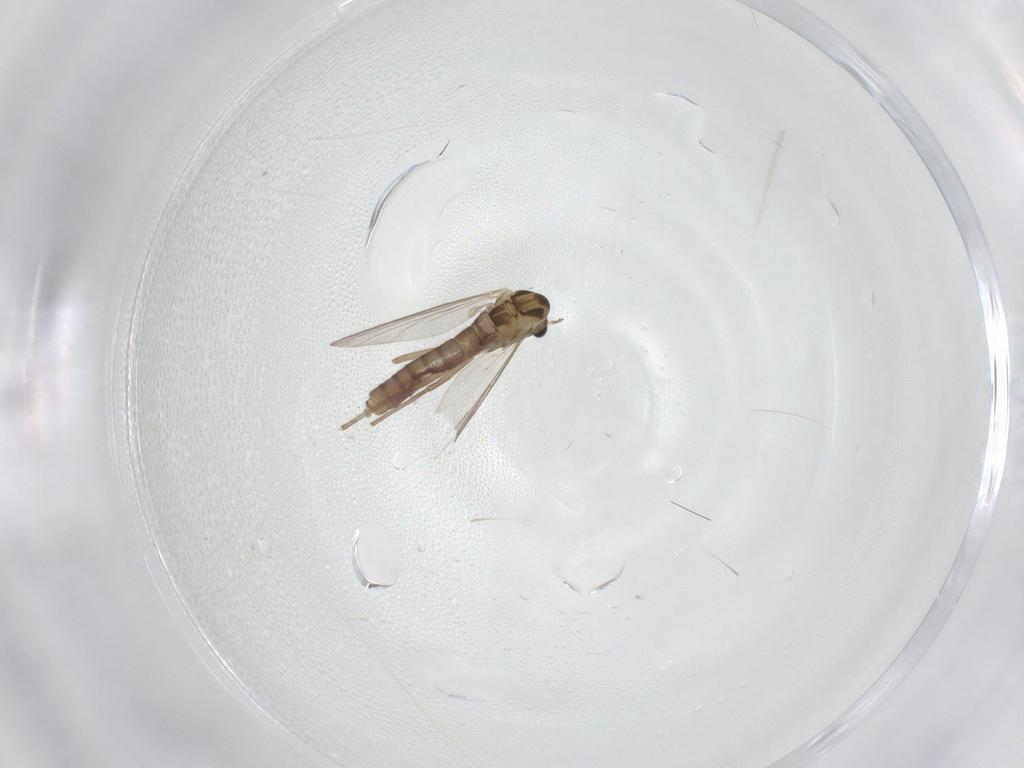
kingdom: Animalia
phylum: Arthropoda
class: Insecta
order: Diptera
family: Chironomidae
